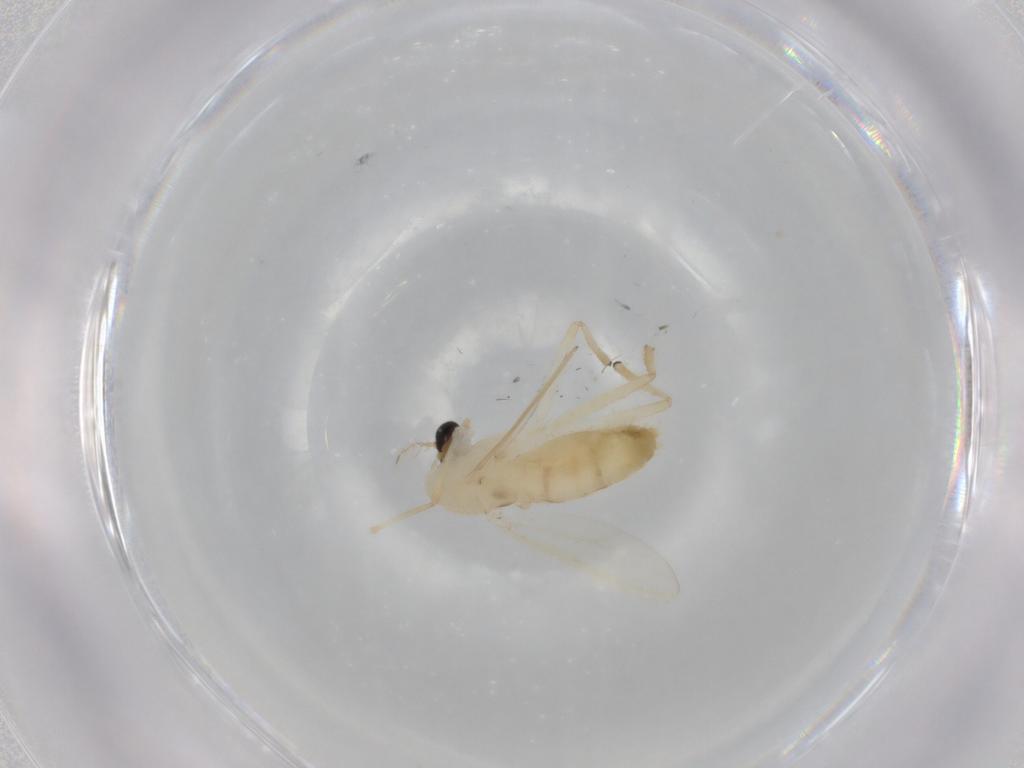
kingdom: Animalia
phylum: Arthropoda
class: Insecta
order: Diptera
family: Chironomidae
